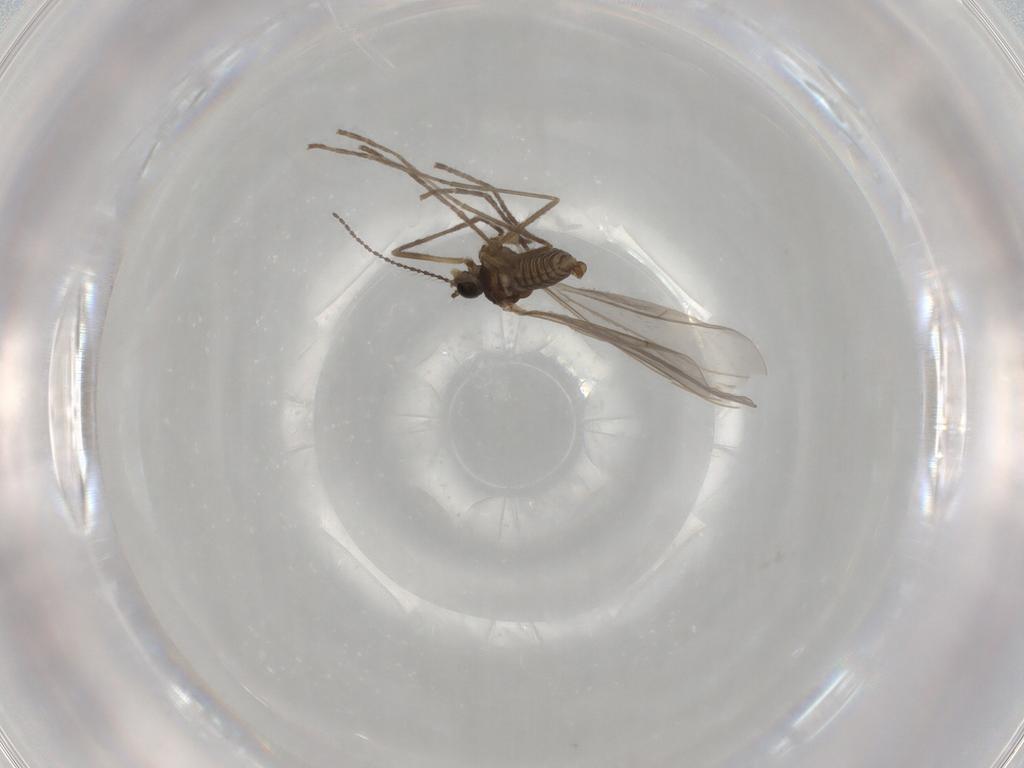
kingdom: Animalia
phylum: Arthropoda
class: Insecta
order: Diptera
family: Cecidomyiidae
